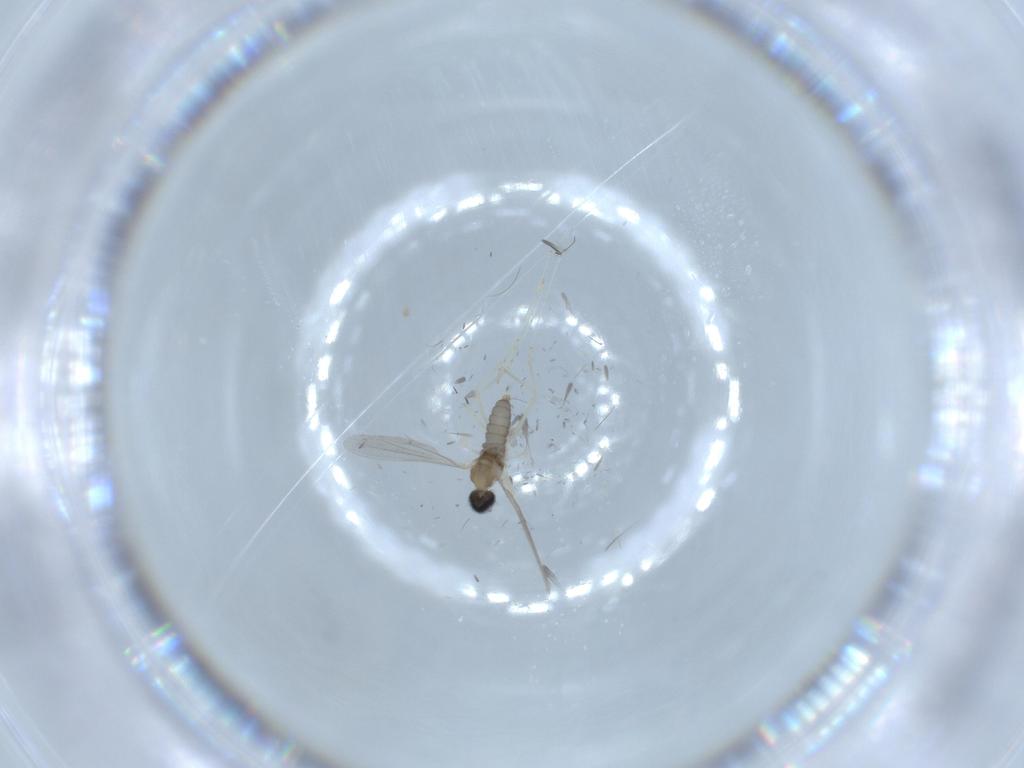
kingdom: Animalia
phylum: Arthropoda
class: Insecta
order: Diptera
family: Cecidomyiidae
